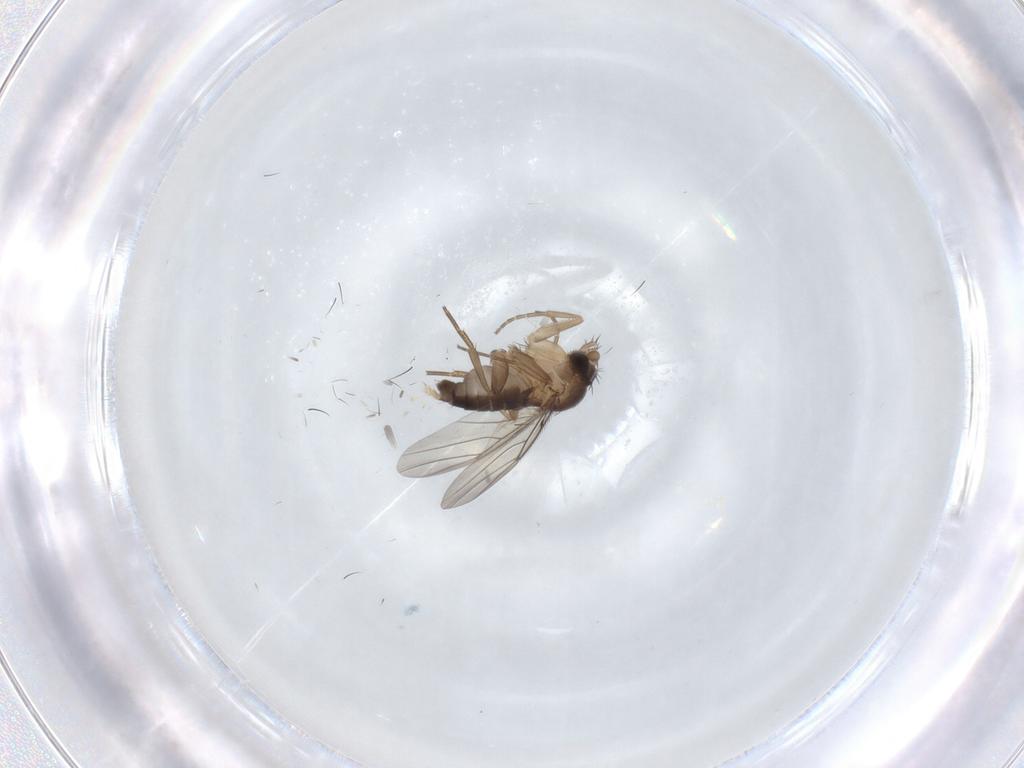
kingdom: Animalia
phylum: Arthropoda
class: Insecta
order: Diptera
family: Phoridae
